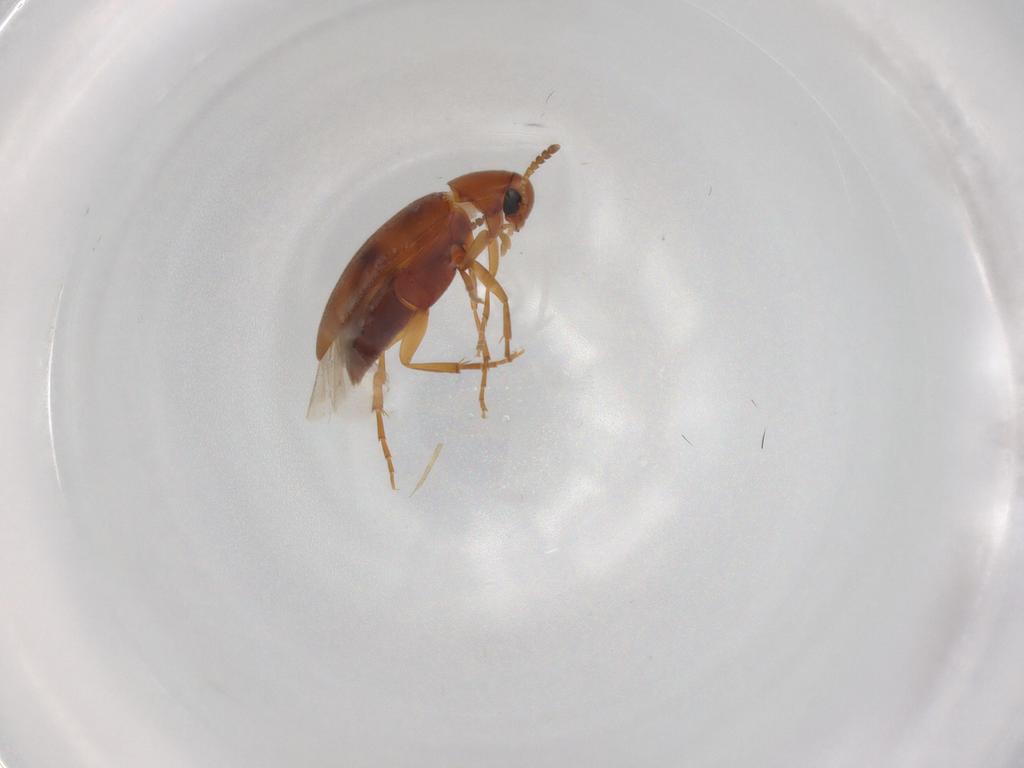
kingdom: Animalia
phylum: Arthropoda
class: Insecta
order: Coleoptera
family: Scraptiidae
